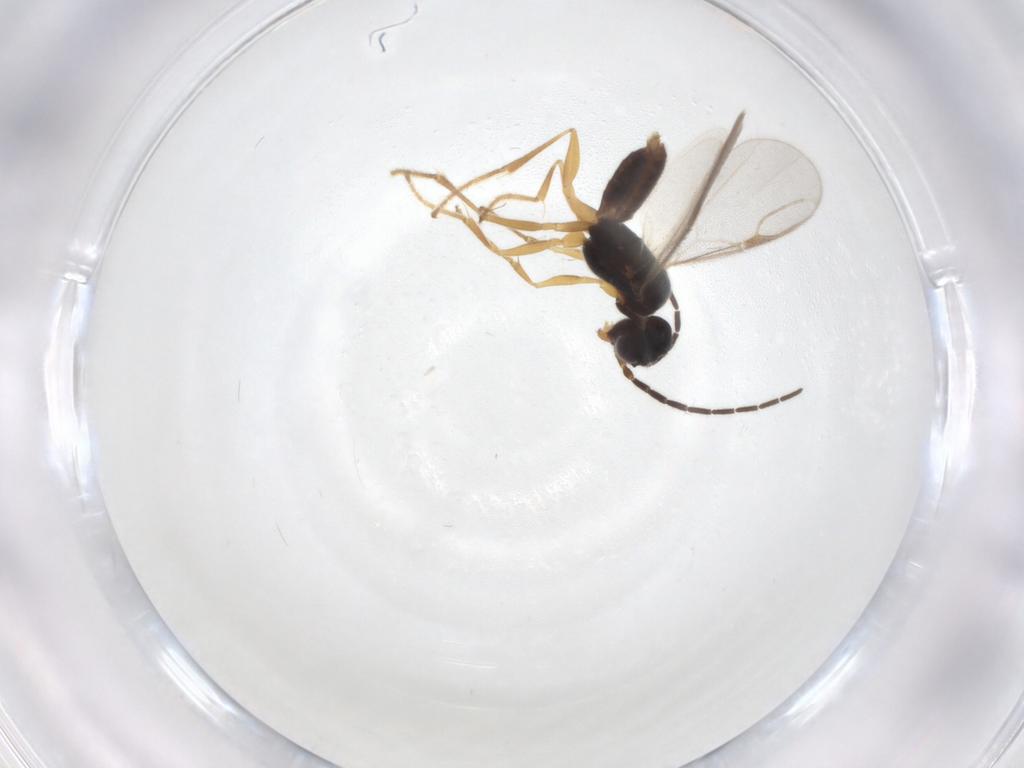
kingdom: Animalia
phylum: Arthropoda
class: Insecta
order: Hymenoptera
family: Dryinidae
